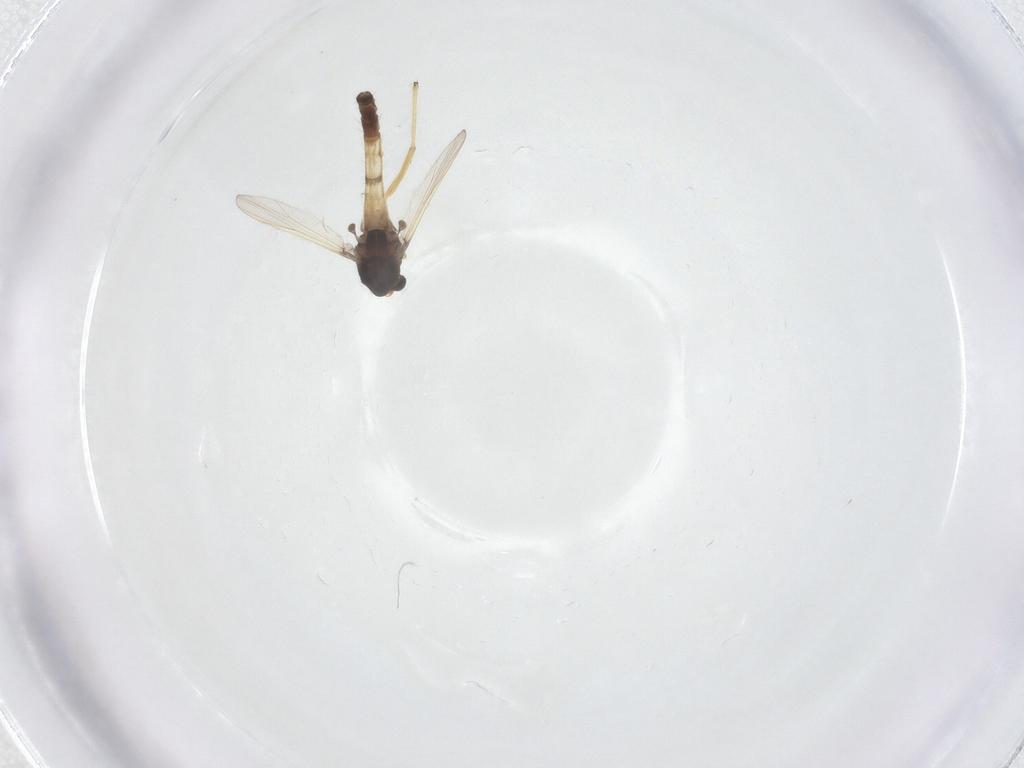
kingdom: Animalia
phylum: Arthropoda
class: Insecta
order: Diptera
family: Chironomidae
